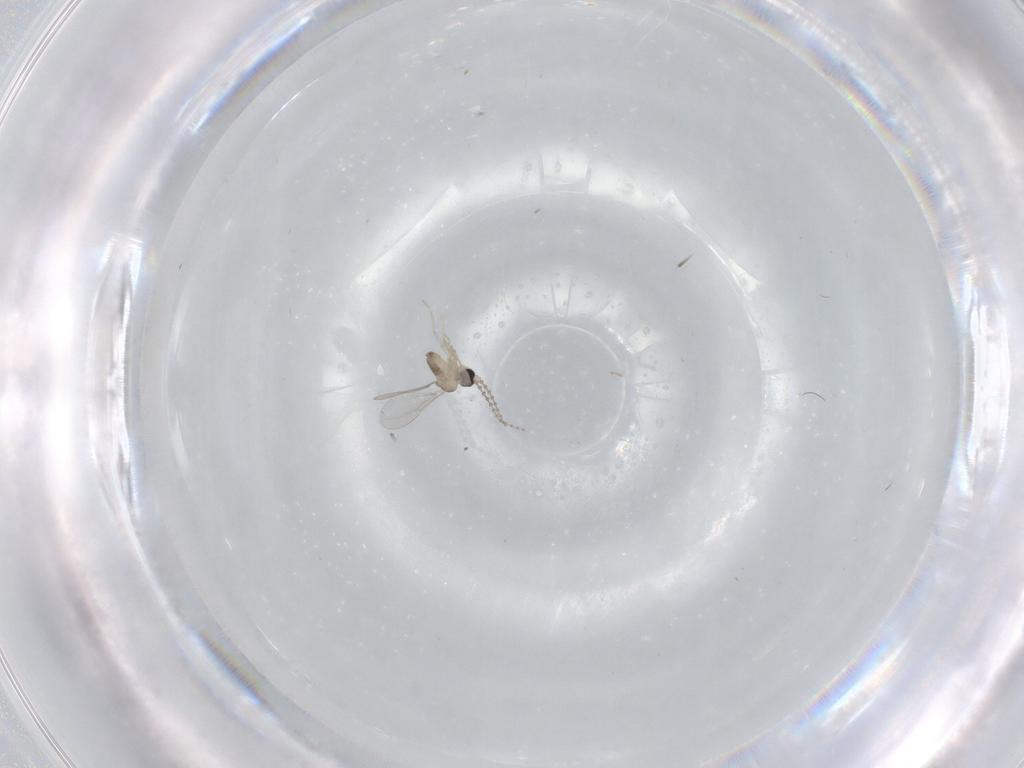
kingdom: Animalia
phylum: Arthropoda
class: Insecta
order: Diptera
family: Cecidomyiidae
